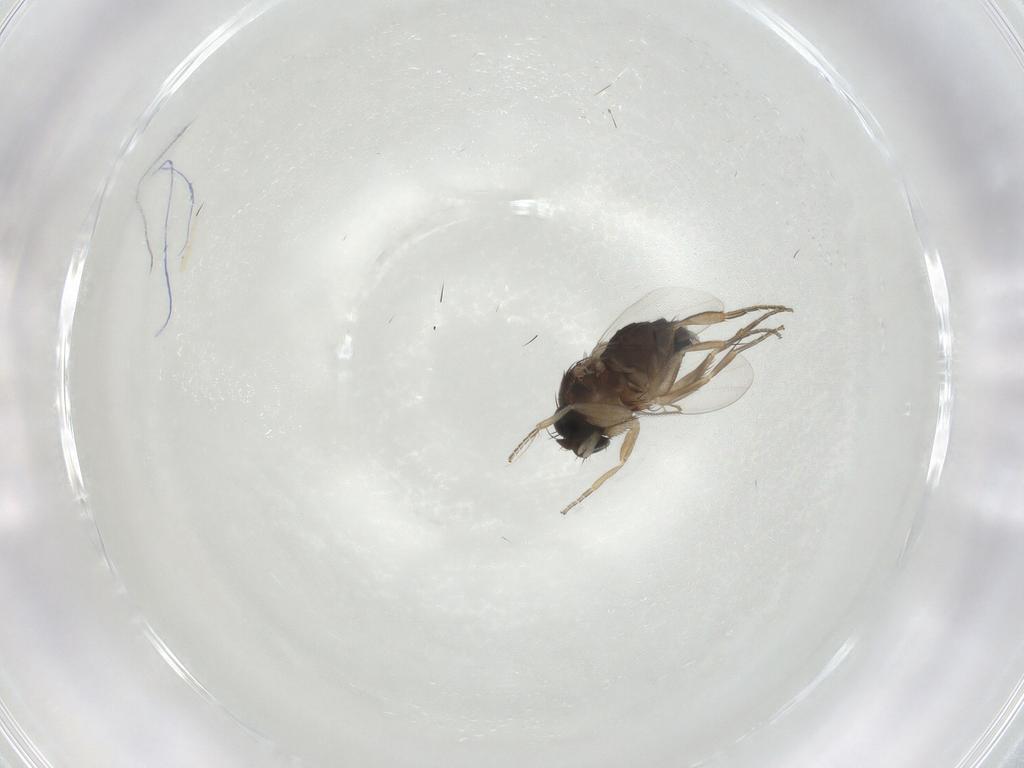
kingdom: Animalia
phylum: Arthropoda
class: Insecta
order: Diptera
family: Phoridae
